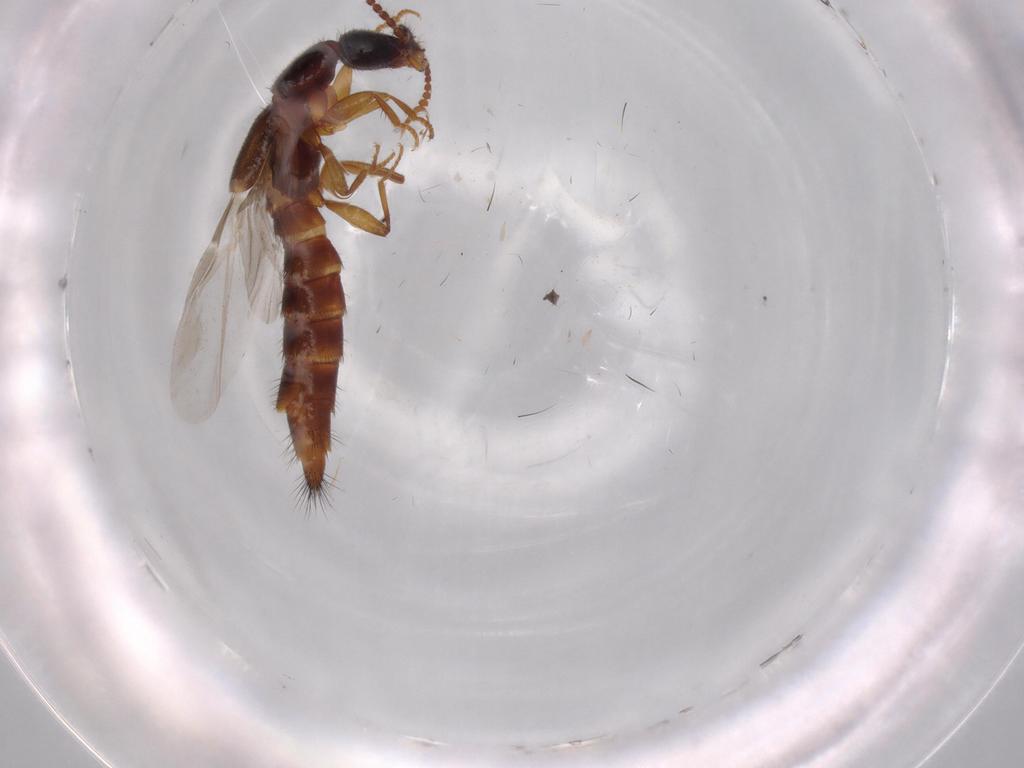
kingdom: Animalia
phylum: Arthropoda
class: Insecta
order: Coleoptera
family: Staphylinidae
